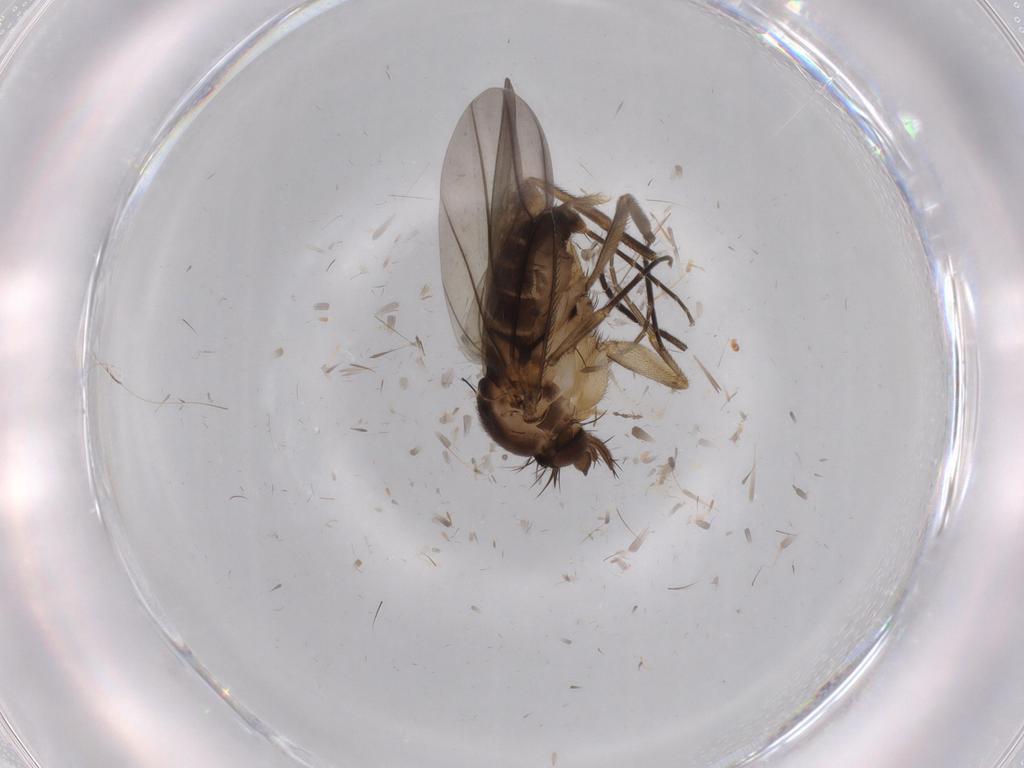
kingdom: Animalia
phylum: Arthropoda
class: Insecta
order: Diptera
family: Phoridae
